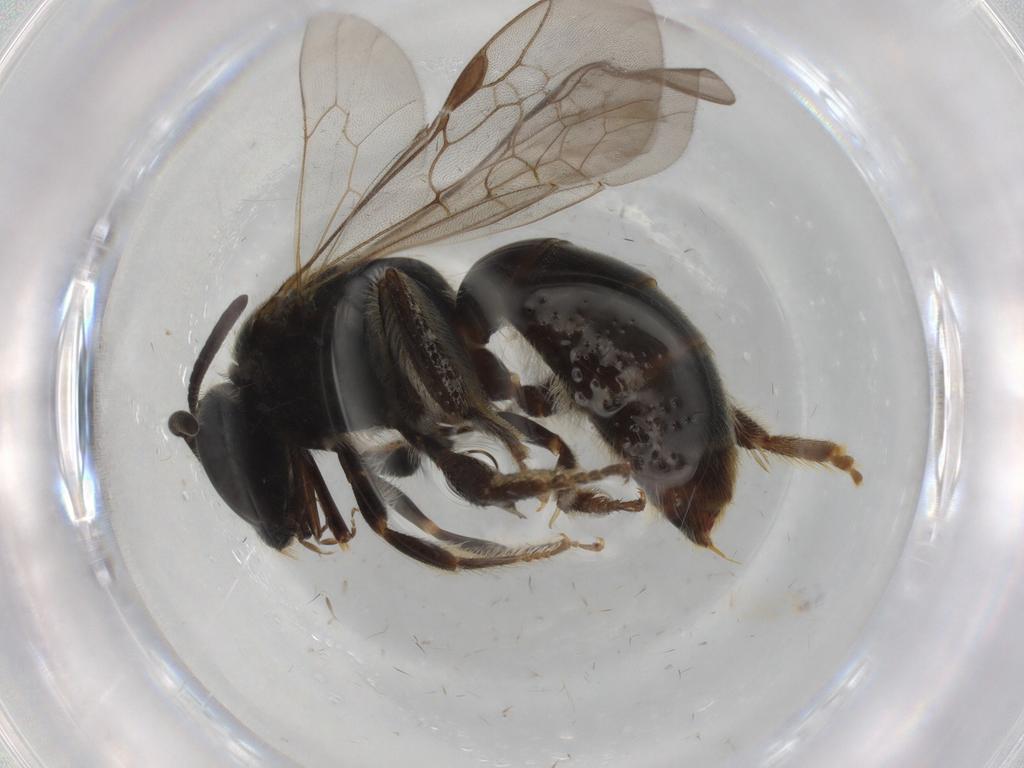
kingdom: Animalia
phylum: Arthropoda
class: Insecta
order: Hymenoptera
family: Halictidae
